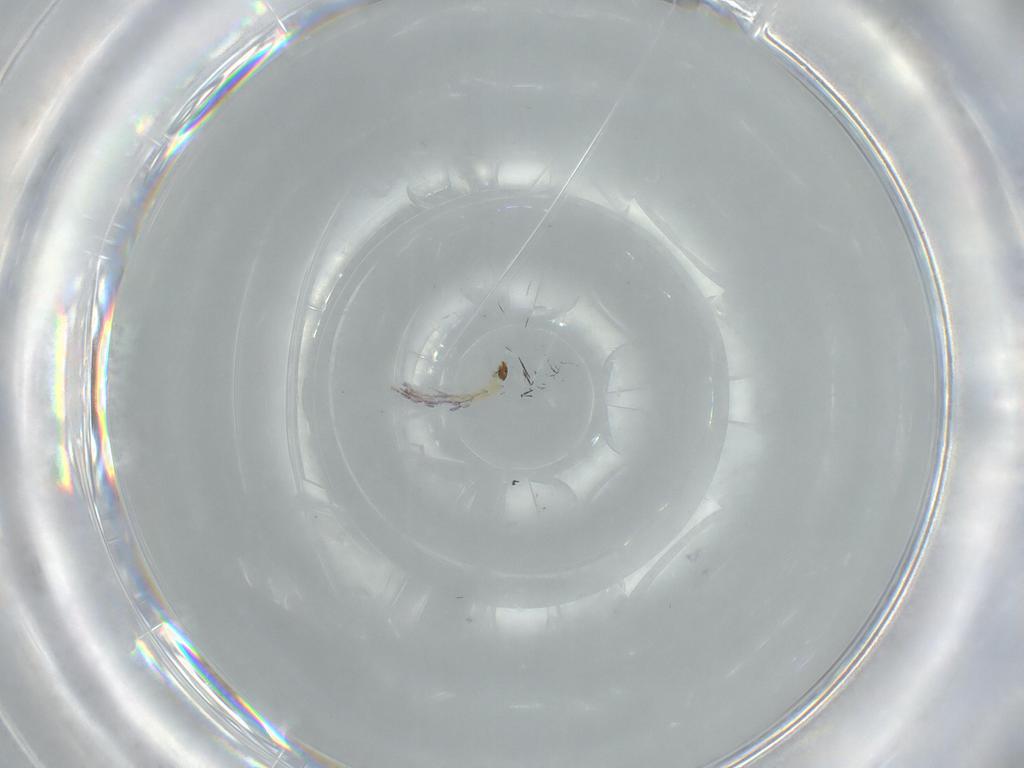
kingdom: Animalia
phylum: Arthropoda
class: Insecta
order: Diptera
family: Chironomidae
